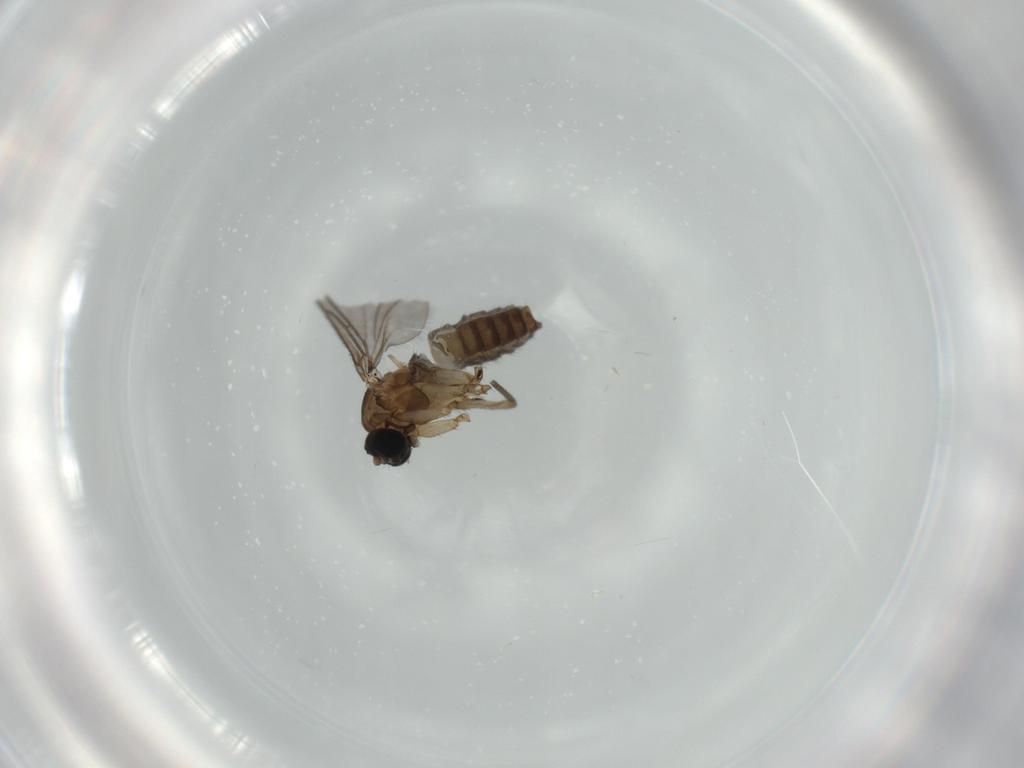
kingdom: Animalia
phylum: Arthropoda
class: Insecta
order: Diptera
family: Sciaridae
